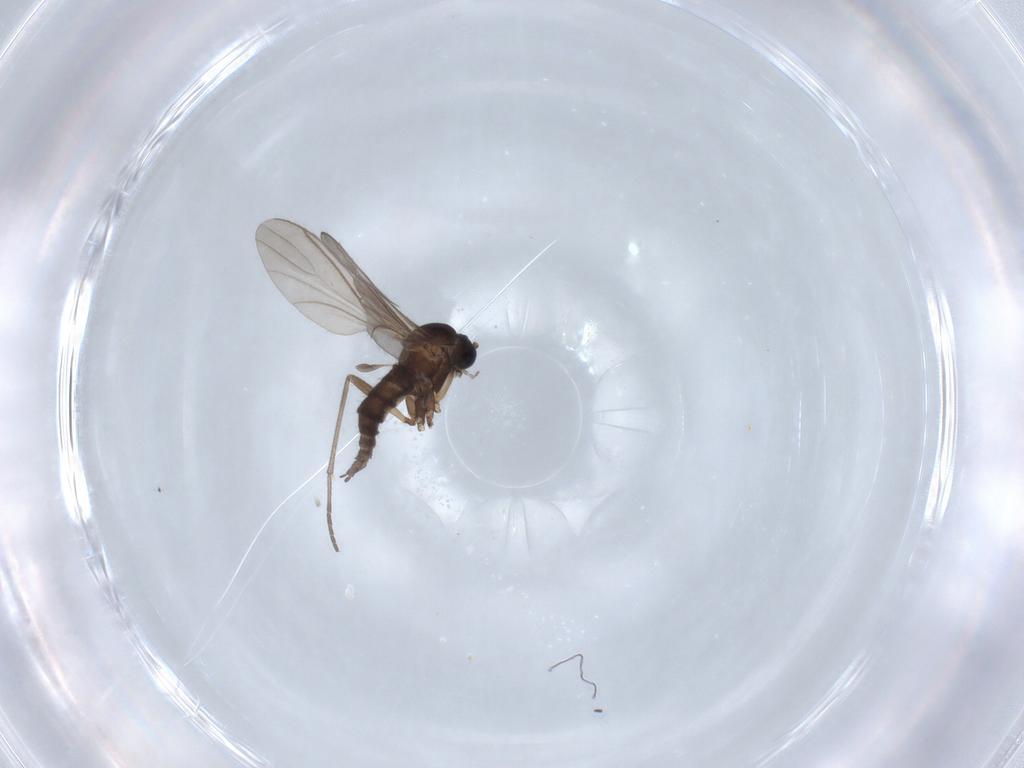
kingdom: Animalia
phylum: Arthropoda
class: Insecta
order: Diptera
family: Sciaridae
